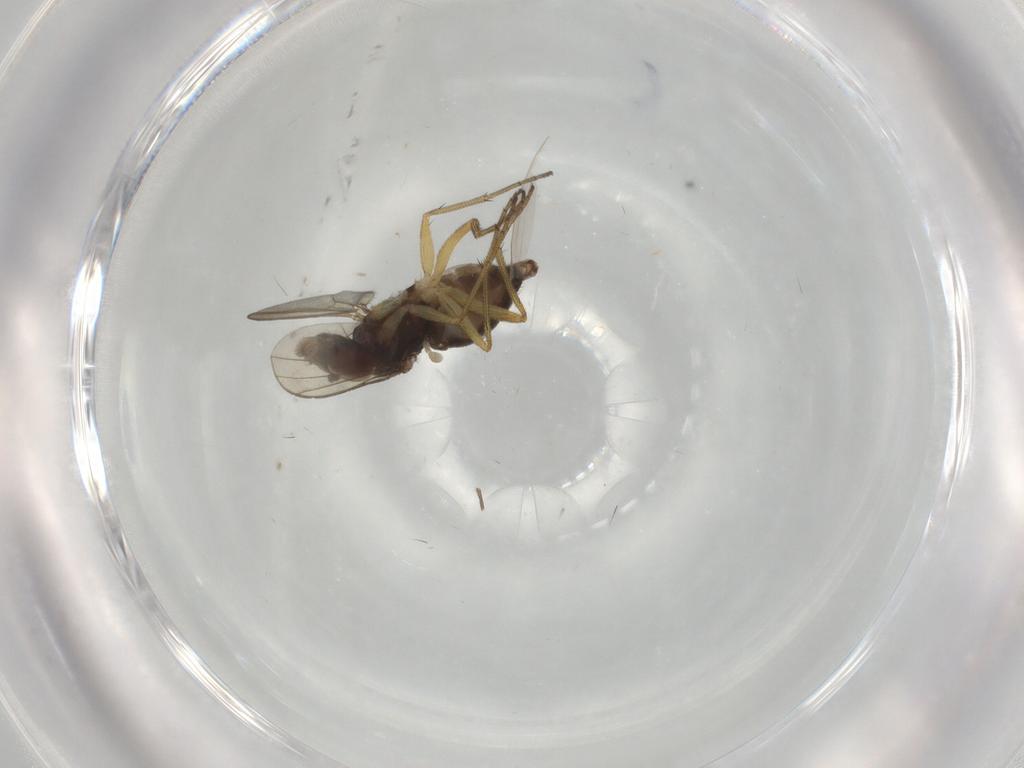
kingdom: Animalia
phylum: Arthropoda
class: Insecta
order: Diptera
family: Dolichopodidae
